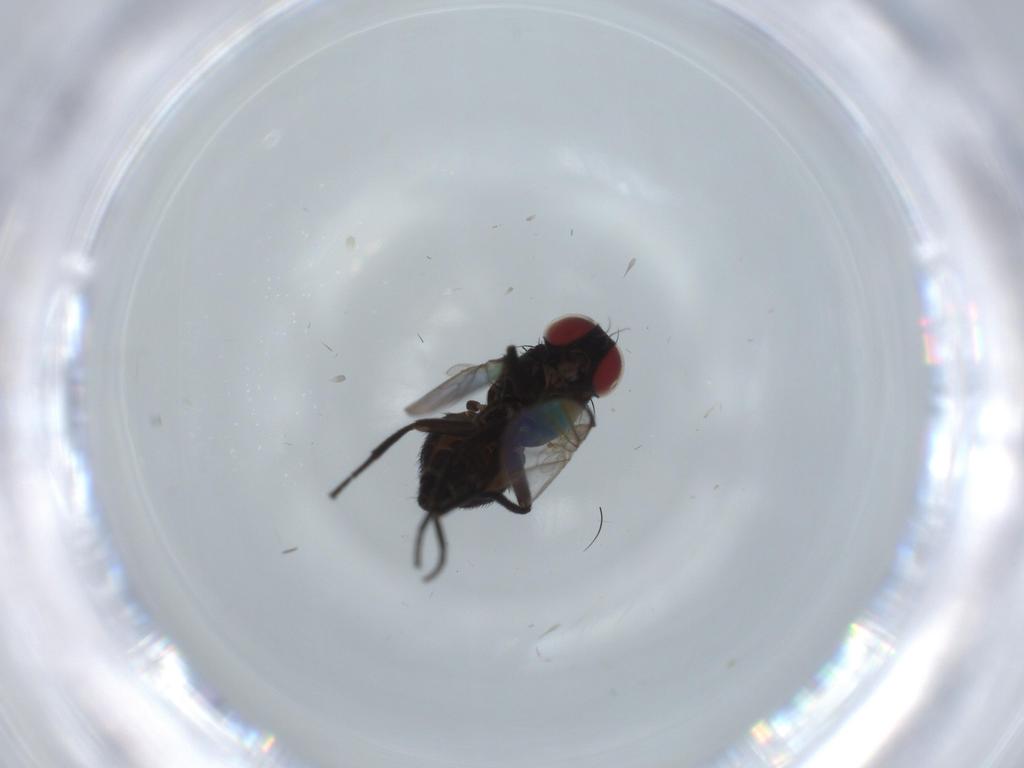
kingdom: Animalia
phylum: Arthropoda
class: Insecta
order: Diptera
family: Agromyzidae
